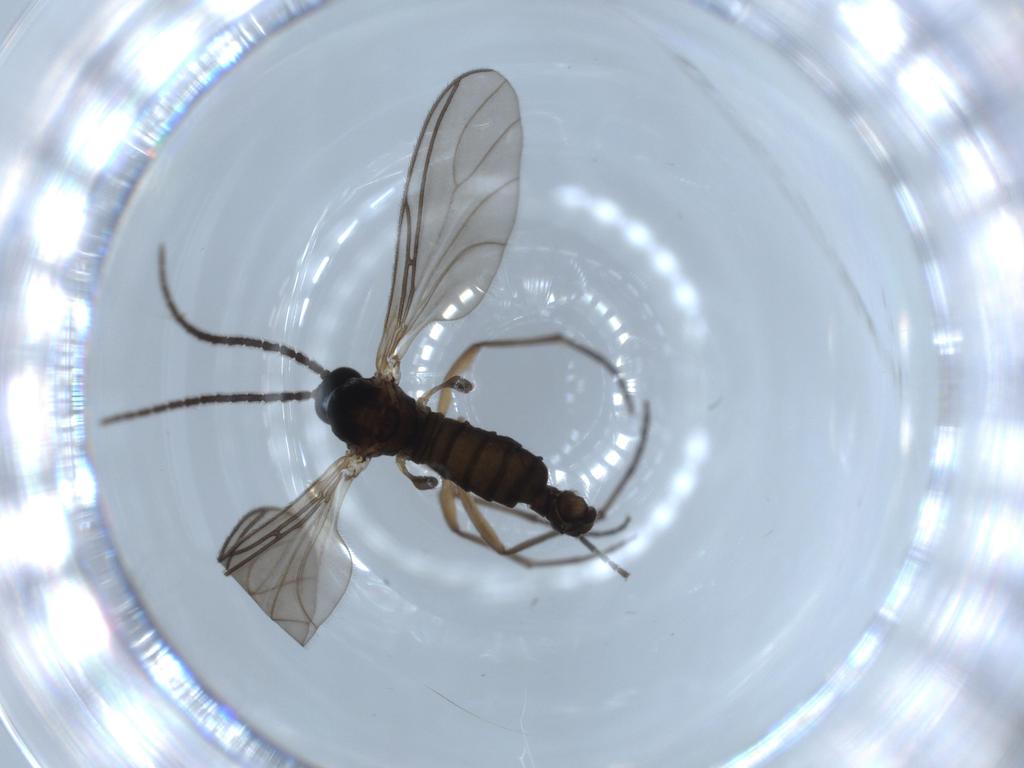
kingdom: Animalia
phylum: Arthropoda
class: Insecta
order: Diptera
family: Sciaridae
